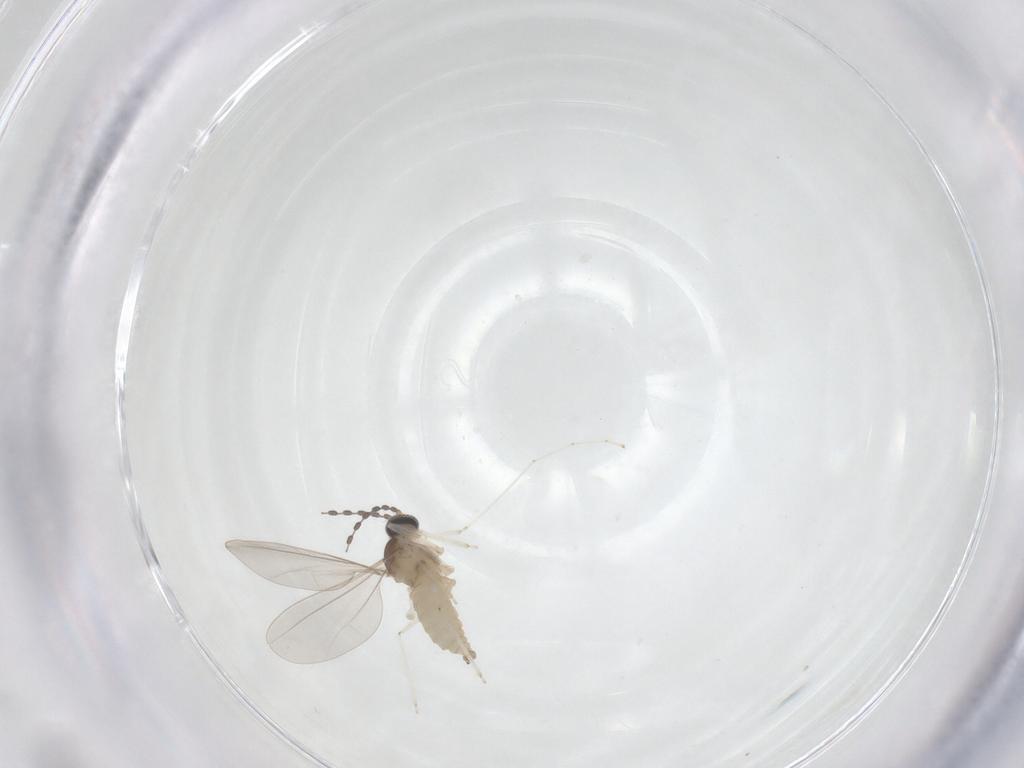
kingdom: Animalia
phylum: Arthropoda
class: Insecta
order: Diptera
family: Cecidomyiidae
